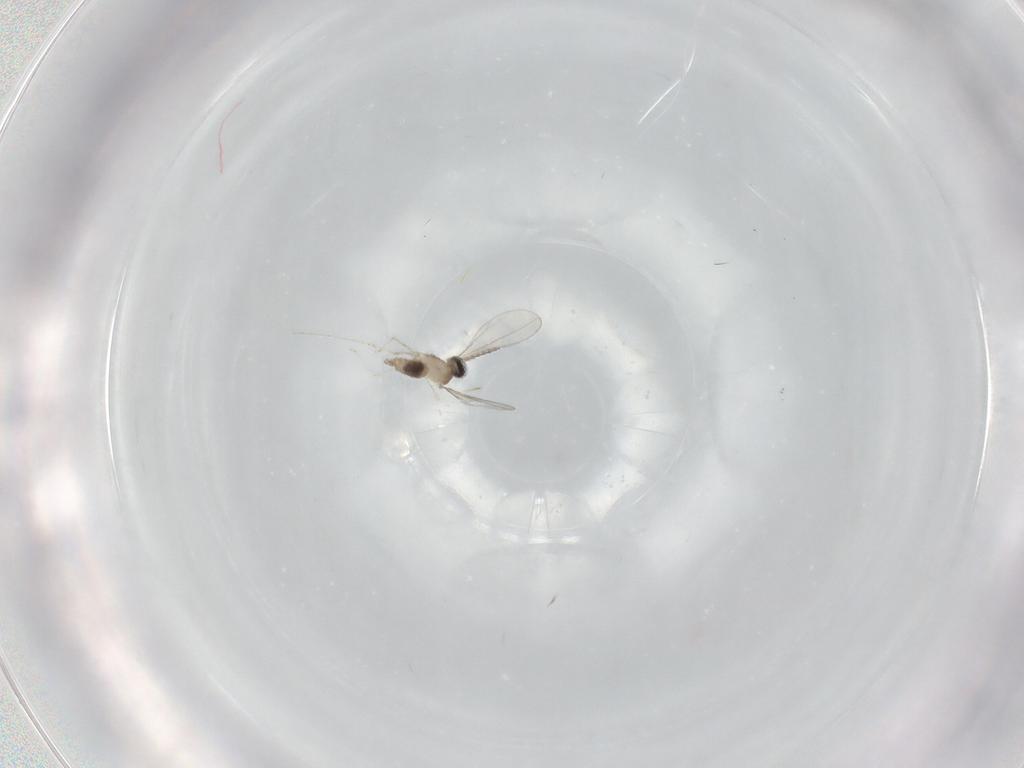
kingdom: Animalia
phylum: Arthropoda
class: Insecta
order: Diptera
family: Cecidomyiidae
